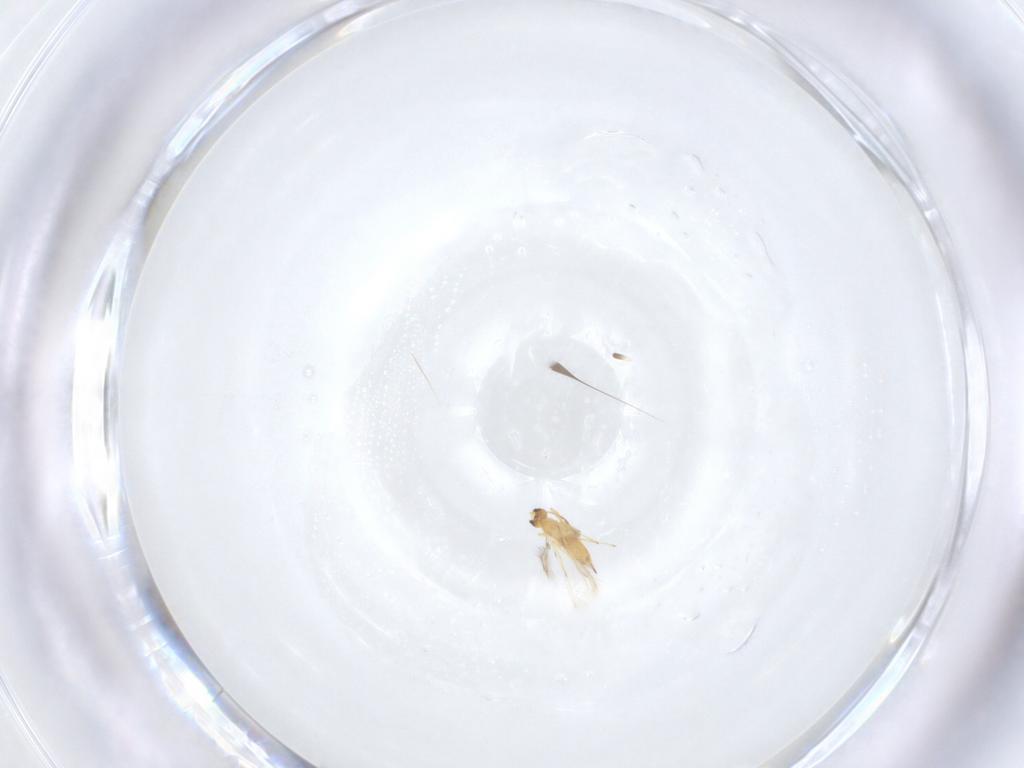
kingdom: Animalia
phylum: Arthropoda
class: Insecta
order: Hymenoptera
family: Mymaridae
